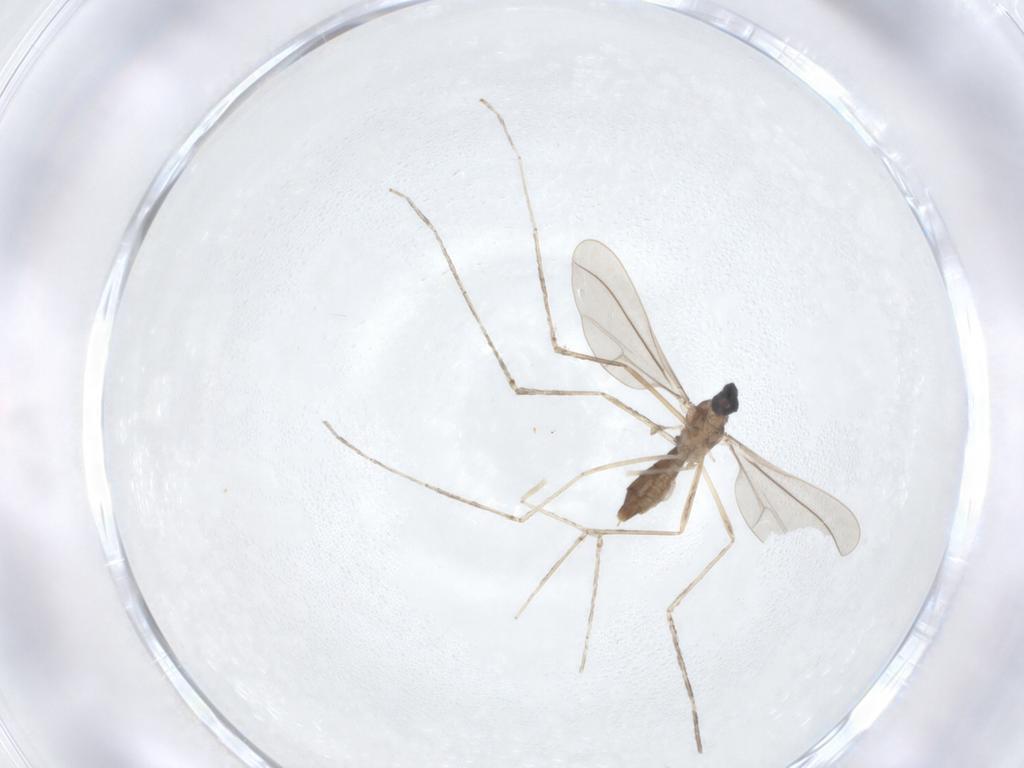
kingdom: Animalia
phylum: Arthropoda
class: Insecta
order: Diptera
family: Cecidomyiidae
